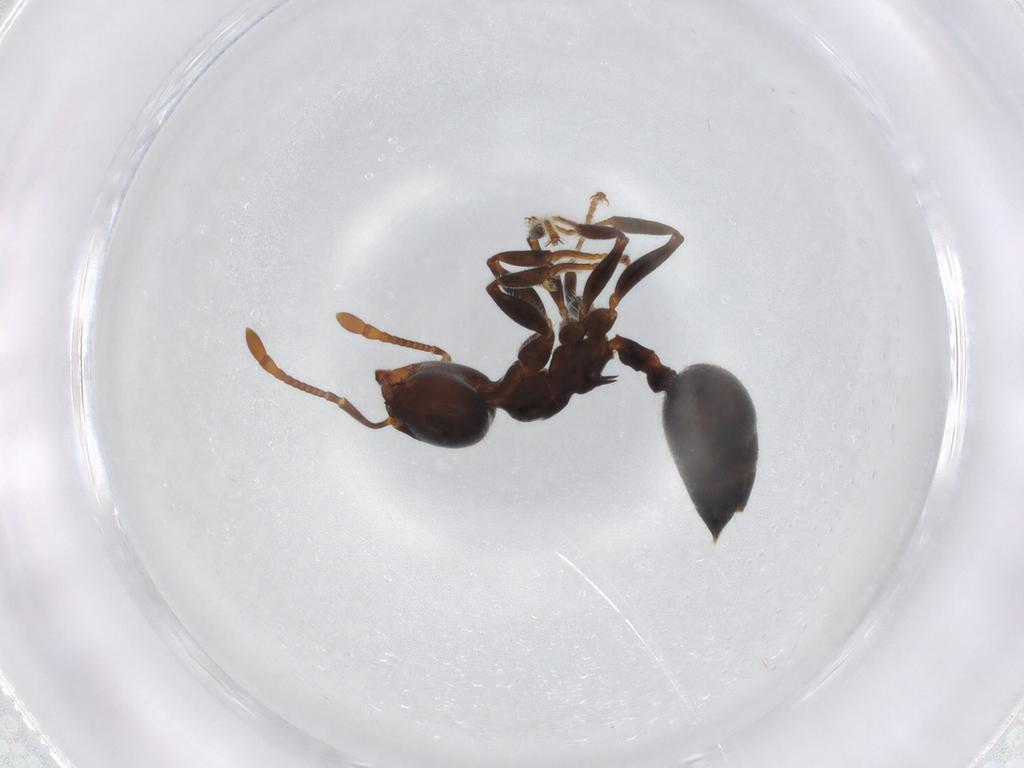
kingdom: Animalia
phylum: Arthropoda
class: Insecta
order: Hymenoptera
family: Formicidae
